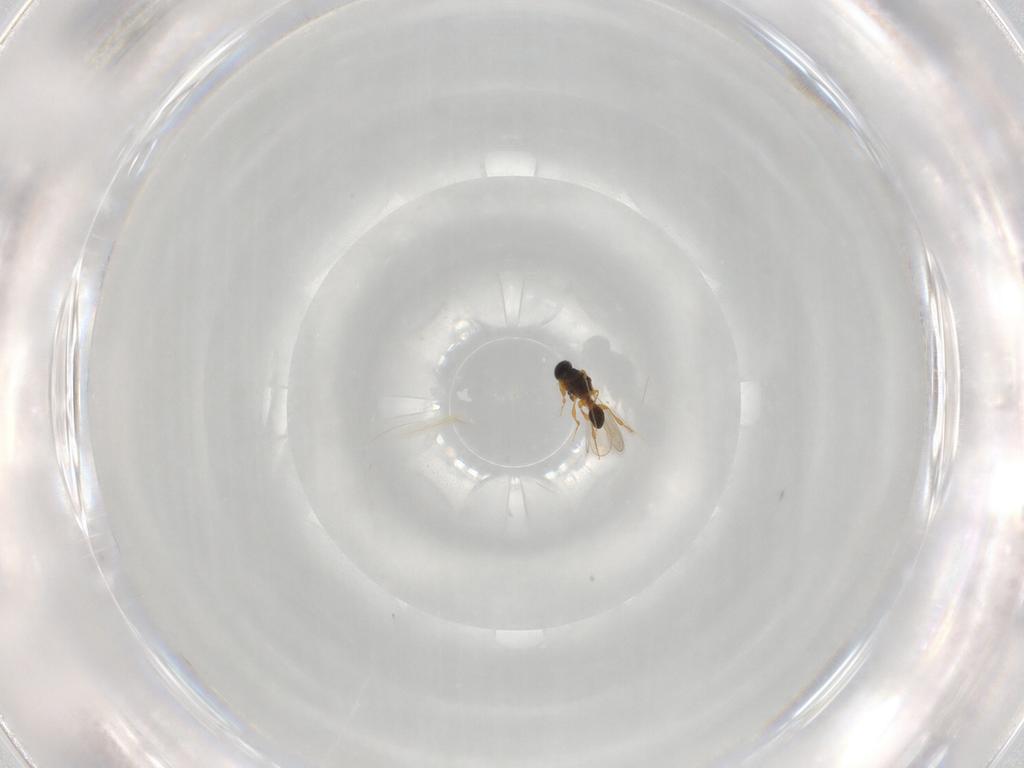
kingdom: Animalia
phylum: Arthropoda
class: Insecta
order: Hymenoptera
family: Platygastridae
